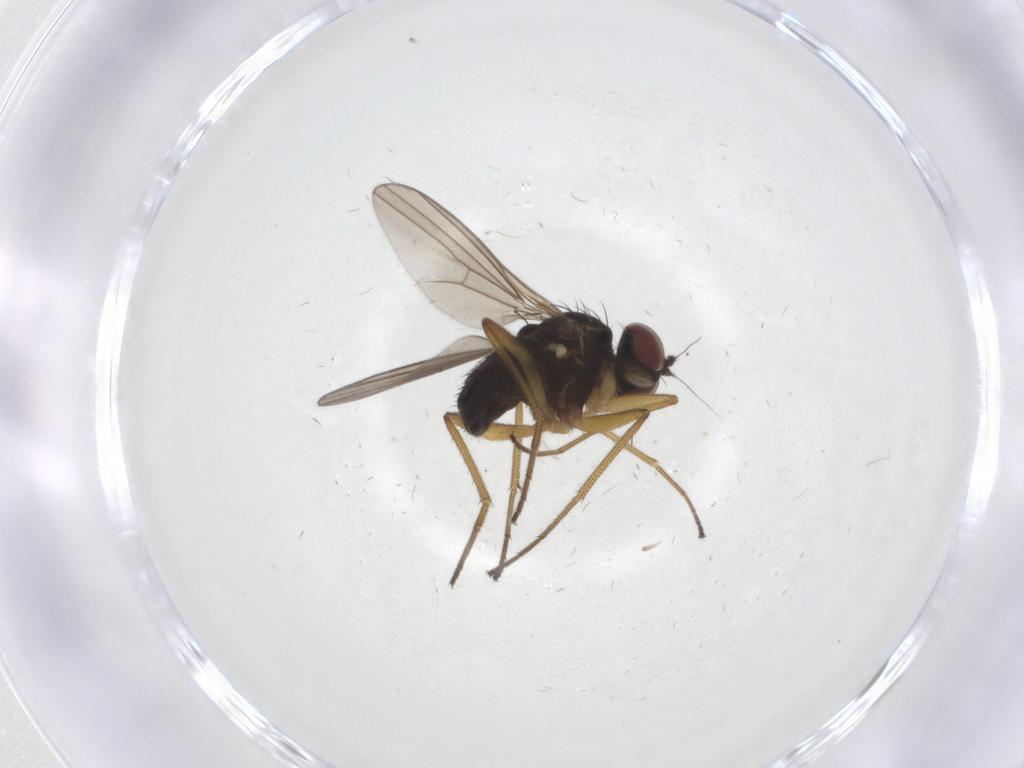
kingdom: Animalia
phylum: Arthropoda
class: Insecta
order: Diptera
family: Dolichopodidae
